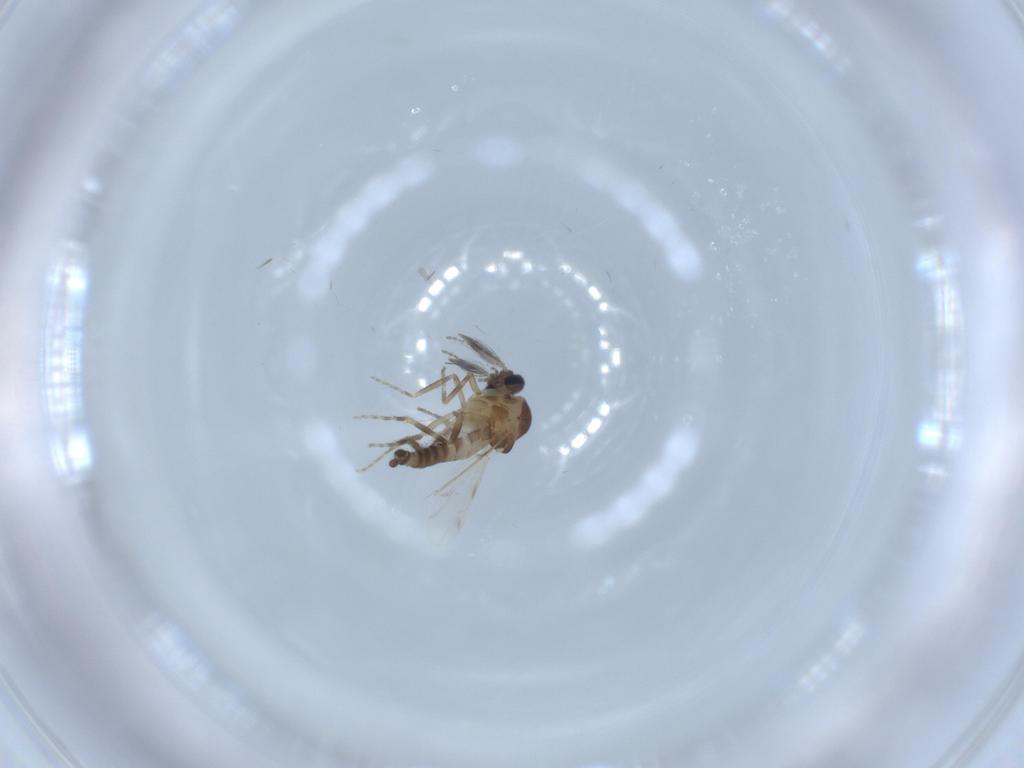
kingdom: Animalia
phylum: Arthropoda
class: Insecta
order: Diptera
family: Ceratopogonidae
